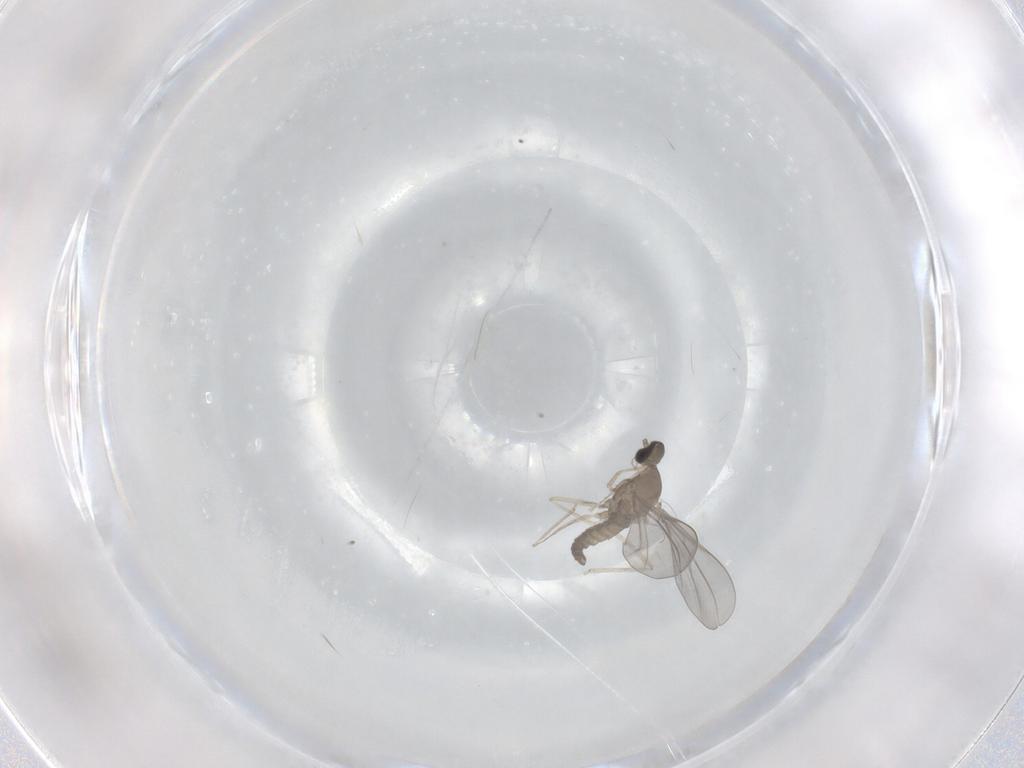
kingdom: Animalia
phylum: Arthropoda
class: Insecta
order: Diptera
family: Cecidomyiidae
